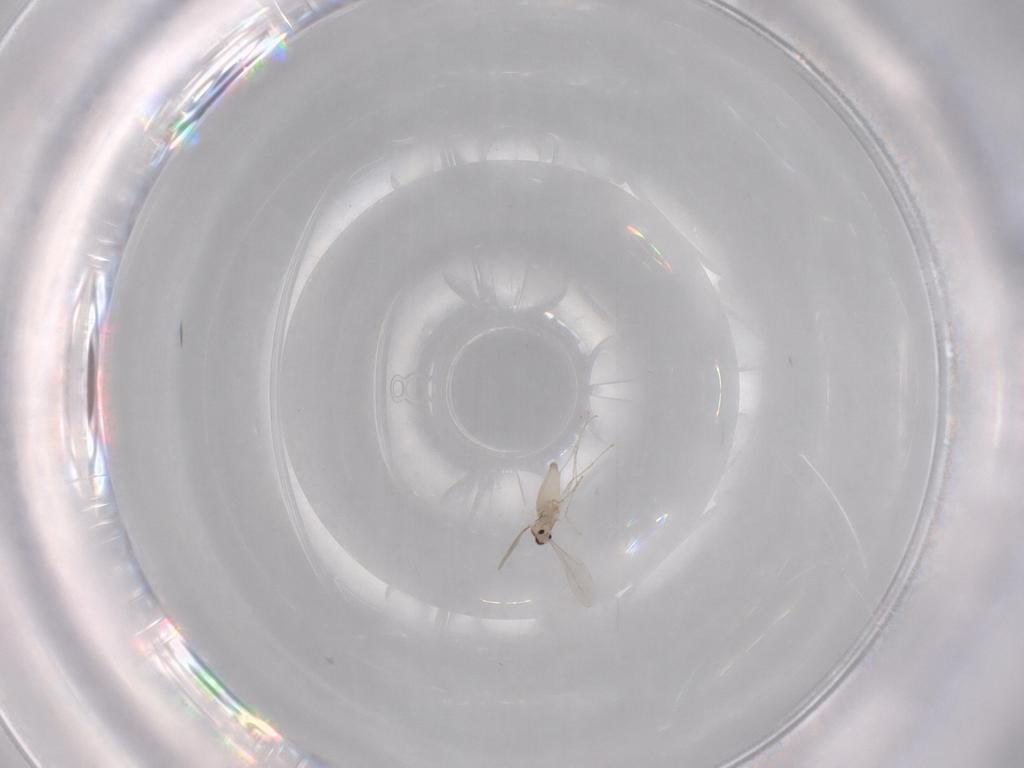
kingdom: Animalia
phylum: Arthropoda
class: Insecta
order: Diptera
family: Cecidomyiidae
